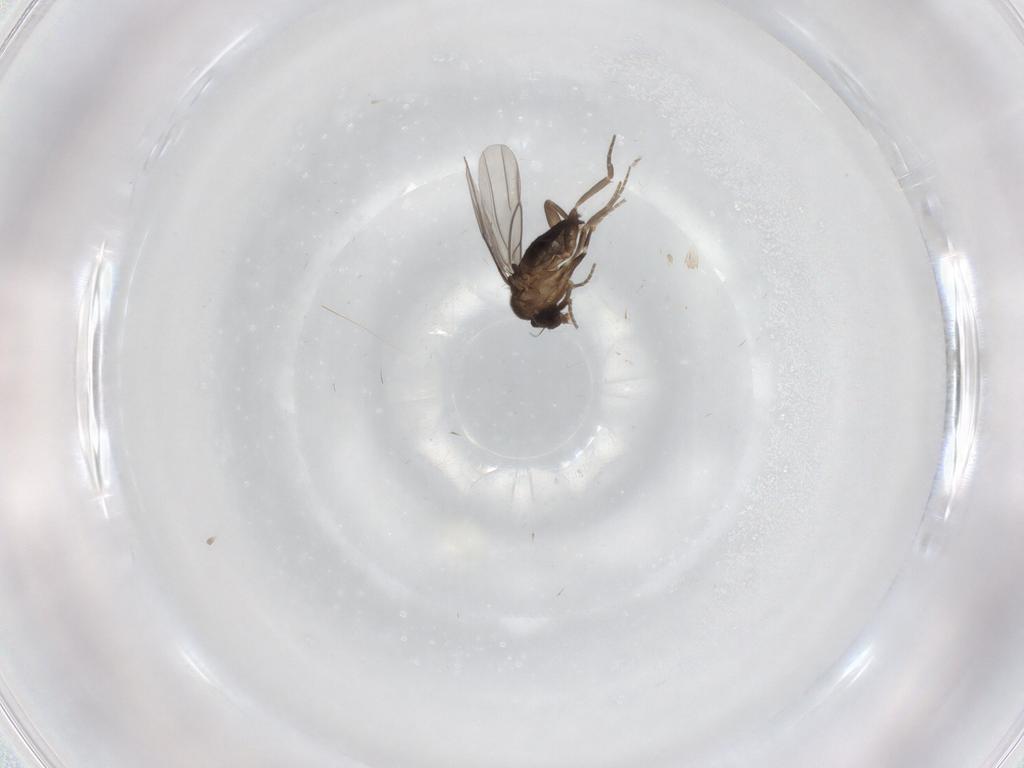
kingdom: Animalia
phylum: Arthropoda
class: Insecta
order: Diptera
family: Phoridae
